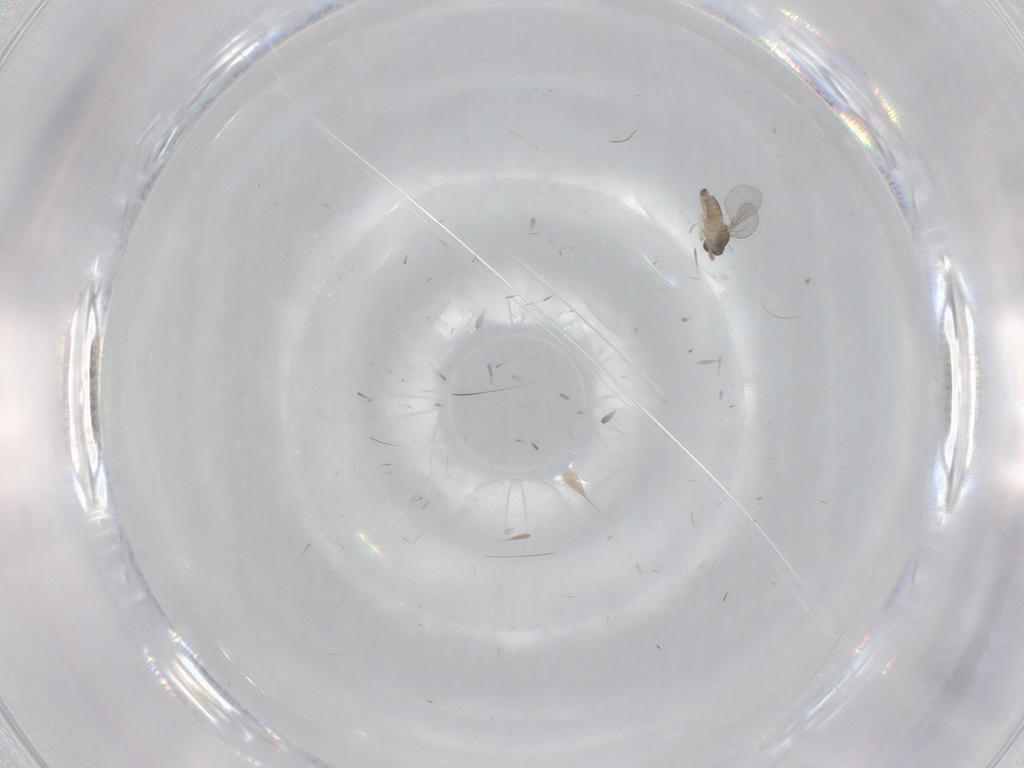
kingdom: Animalia
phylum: Arthropoda
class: Insecta
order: Diptera
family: Cecidomyiidae
